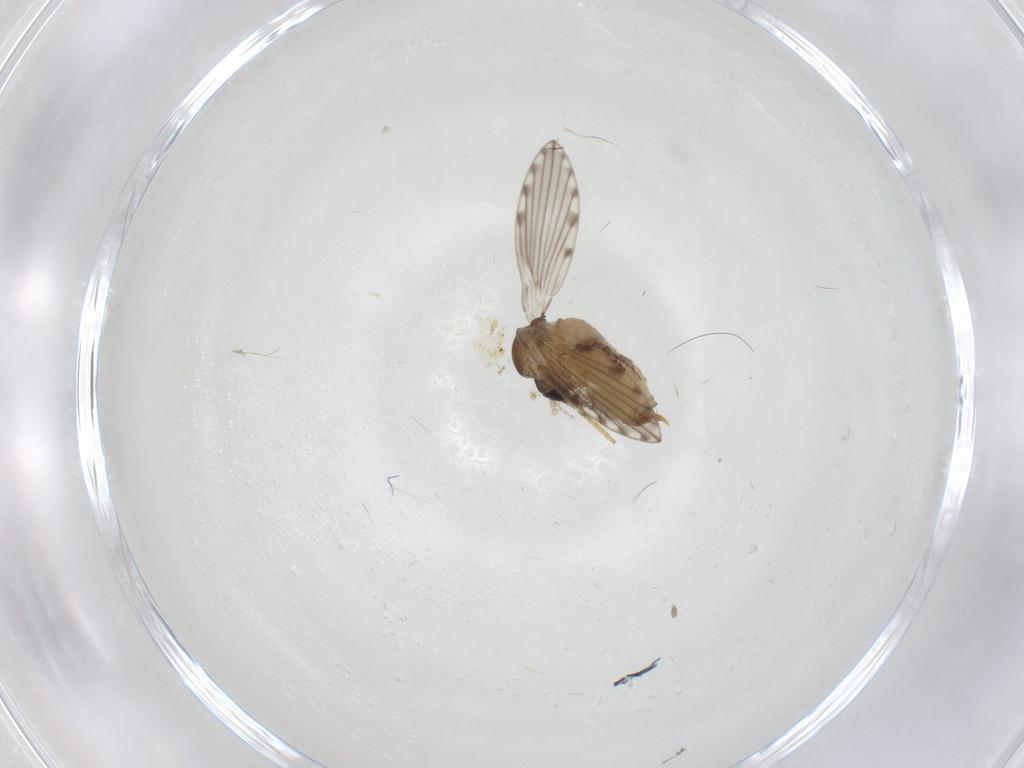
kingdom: Animalia
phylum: Arthropoda
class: Insecta
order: Diptera
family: Psychodidae
